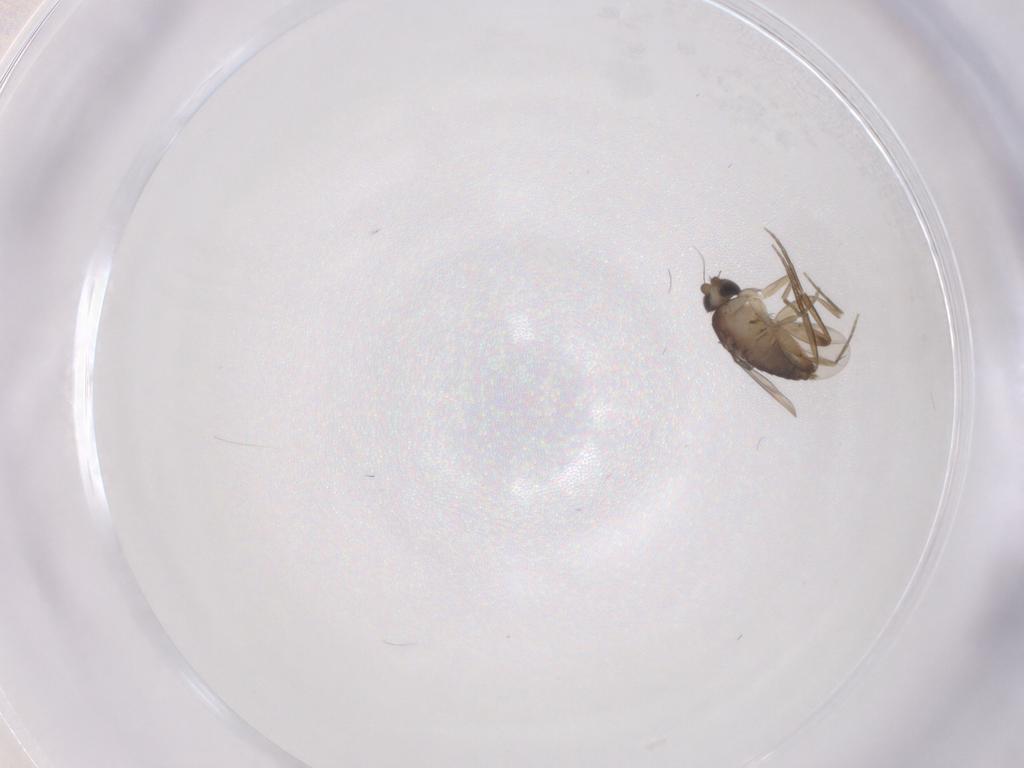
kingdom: Animalia
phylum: Arthropoda
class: Insecta
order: Diptera
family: Phoridae
